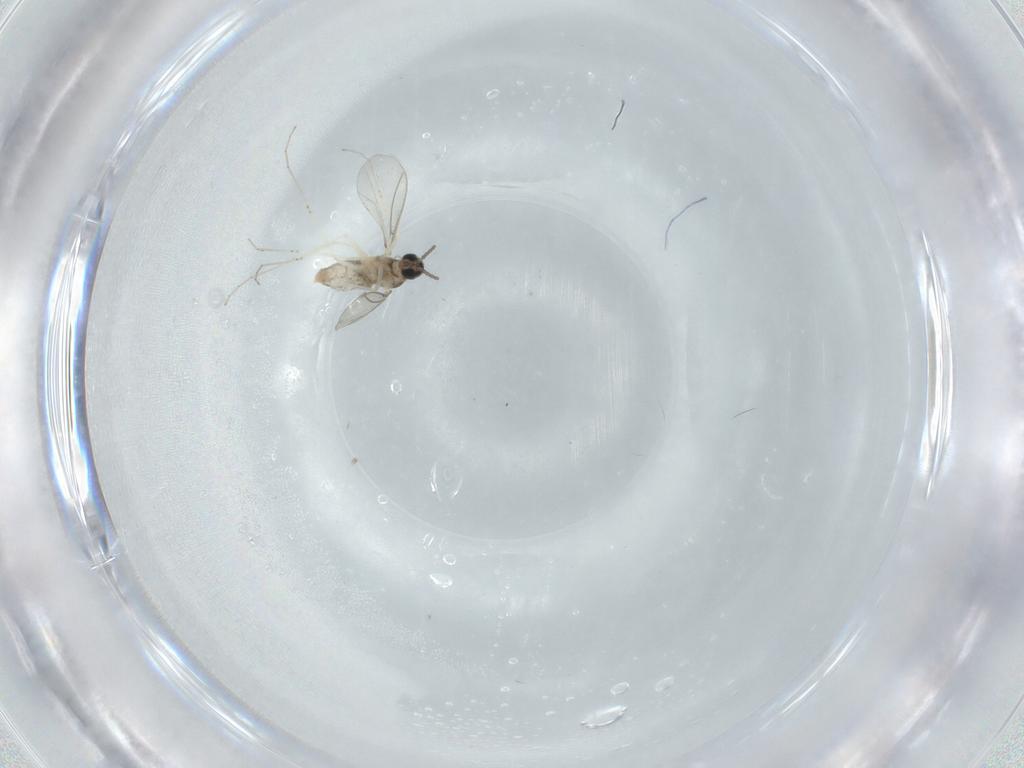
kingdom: Animalia
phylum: Arthropoda
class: Insecta
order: Diptera
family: Cecidomyiidae
